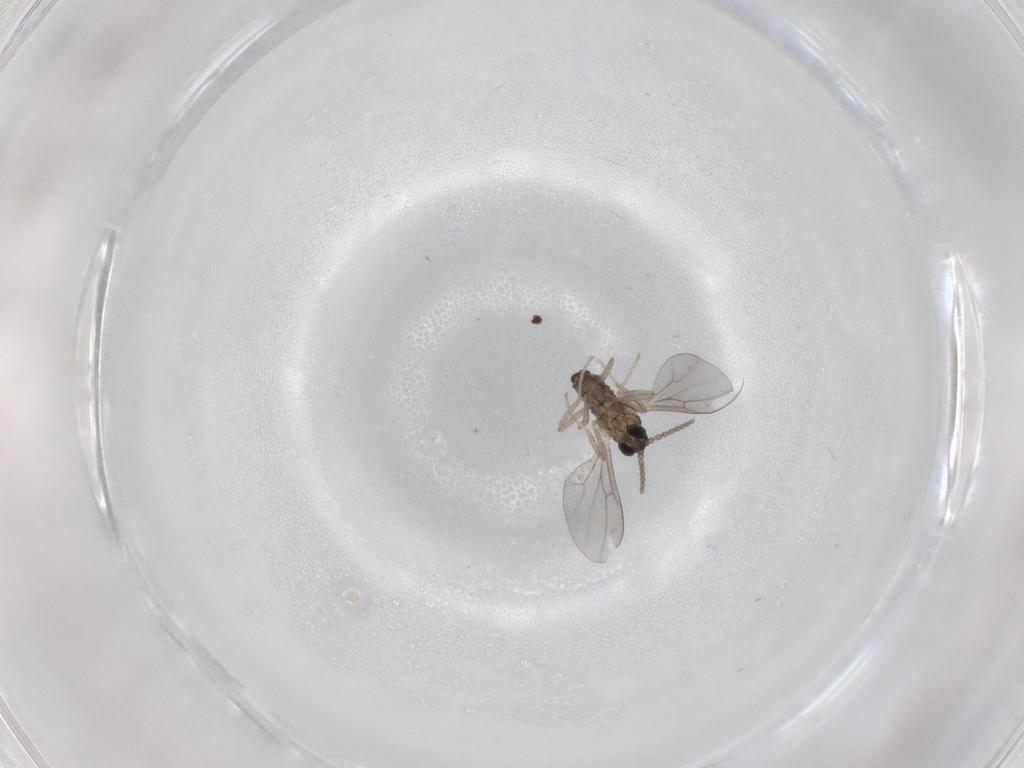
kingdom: Animalia
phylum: Arthropoda
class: Insecta
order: Diptera
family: Cecidomyiidae
